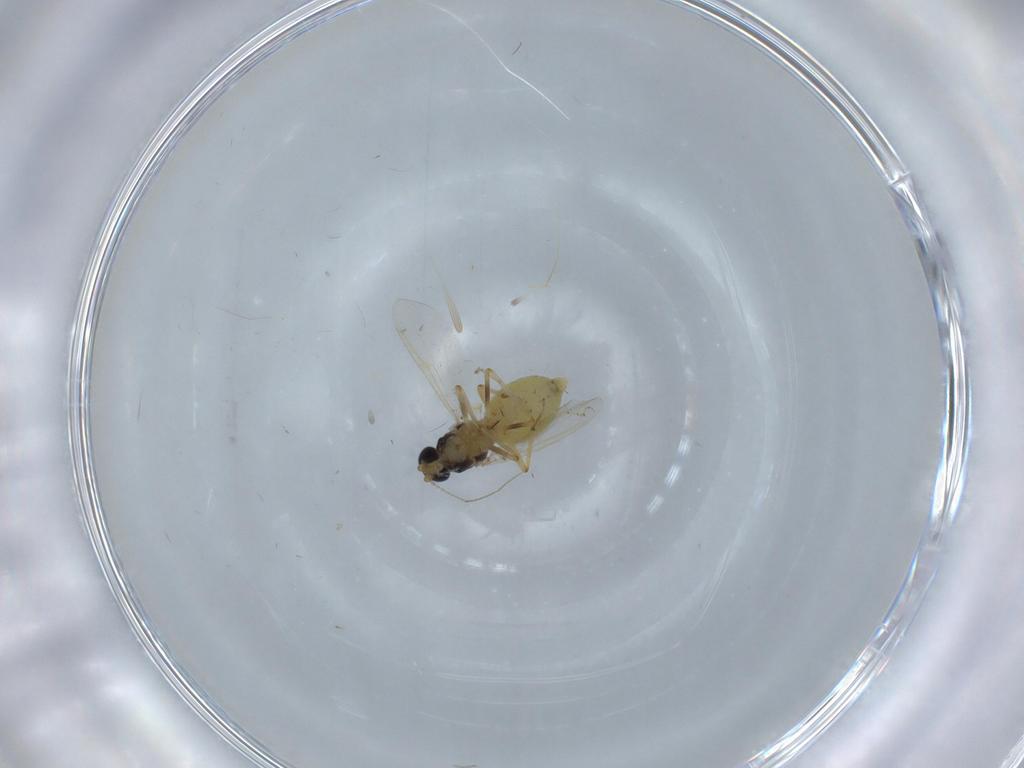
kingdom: Animalia
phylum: Arthropoda
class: Insecta
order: Diptera
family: Ceratopogonidae
